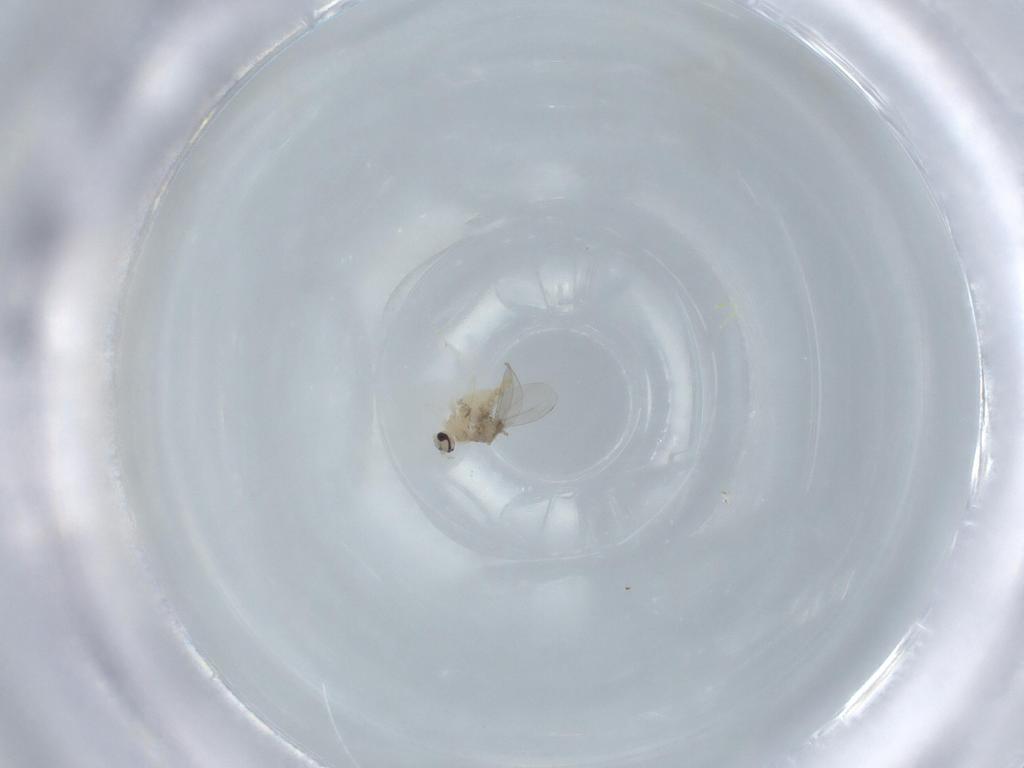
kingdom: Animalia
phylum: Arthropoda
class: Insecta
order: Diptera
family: Cecidomyiidae
